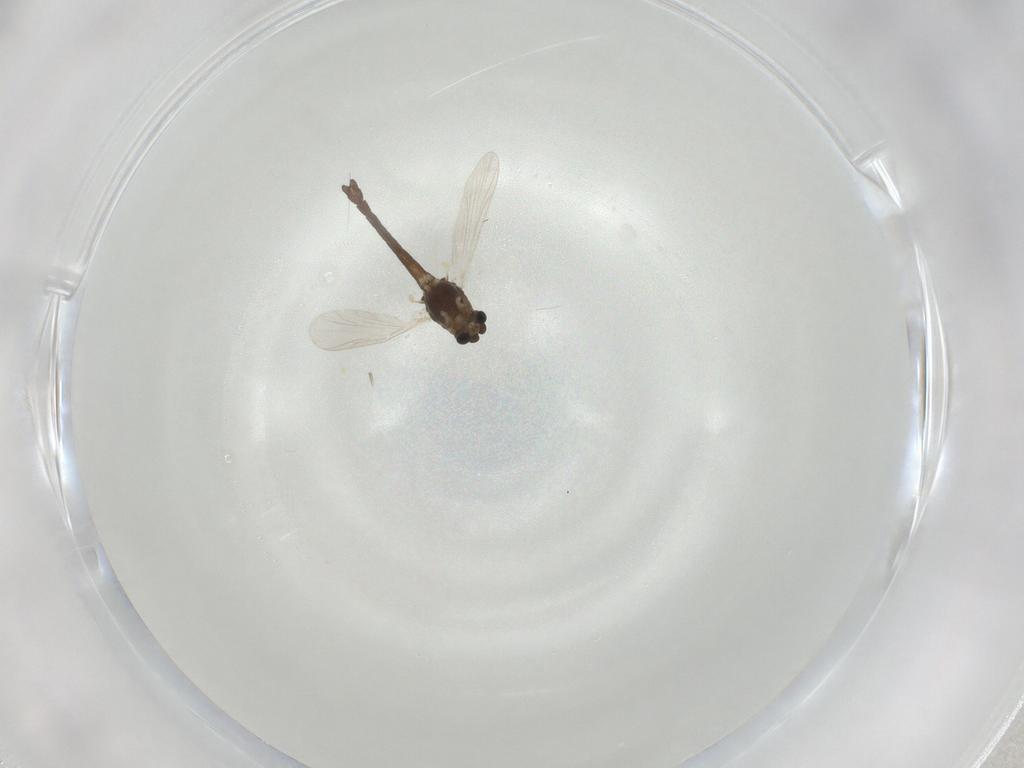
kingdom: Animalia
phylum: Arthropoda
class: Insecta
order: Diptera
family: Chironomidae
